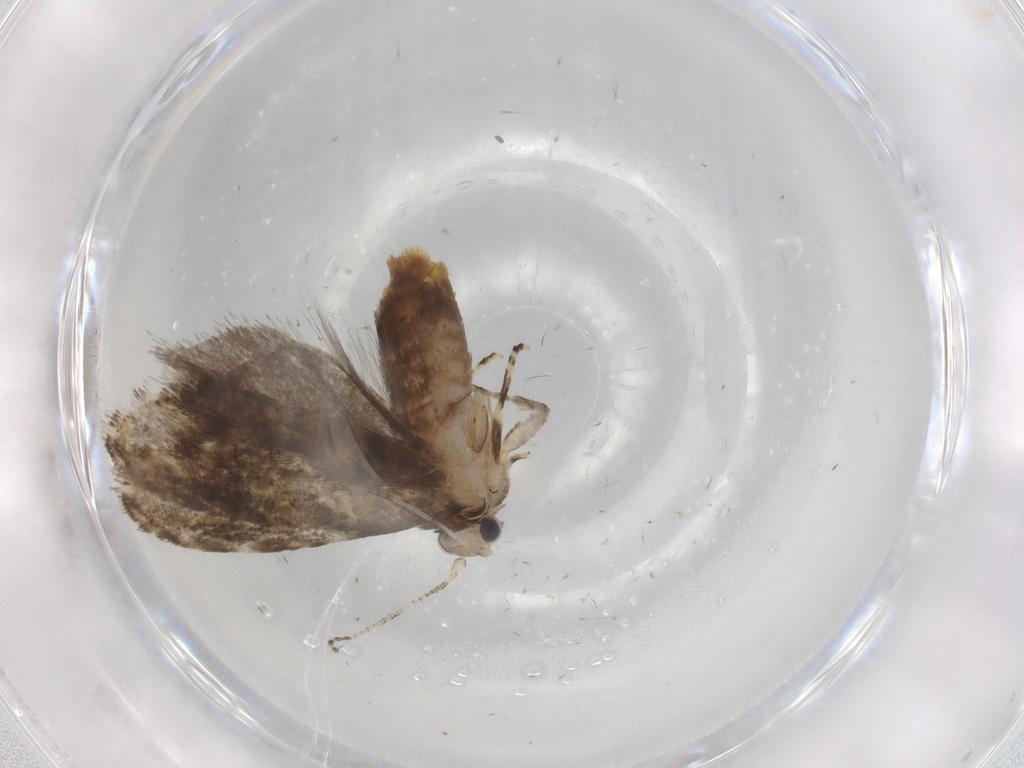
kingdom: Animalia
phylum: Arthropoda
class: Insecta
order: Lepidoptera
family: Tineidae
